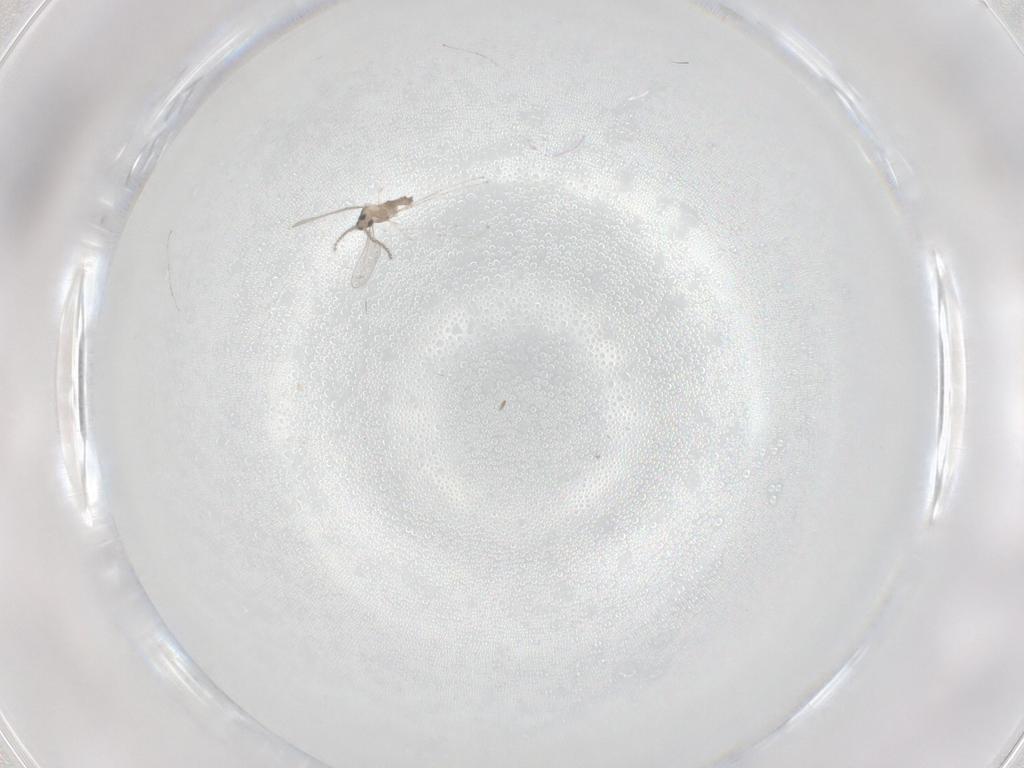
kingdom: Animalia
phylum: Arthropoda
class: Insecta
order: Diptera
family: Cecidomyiidae
